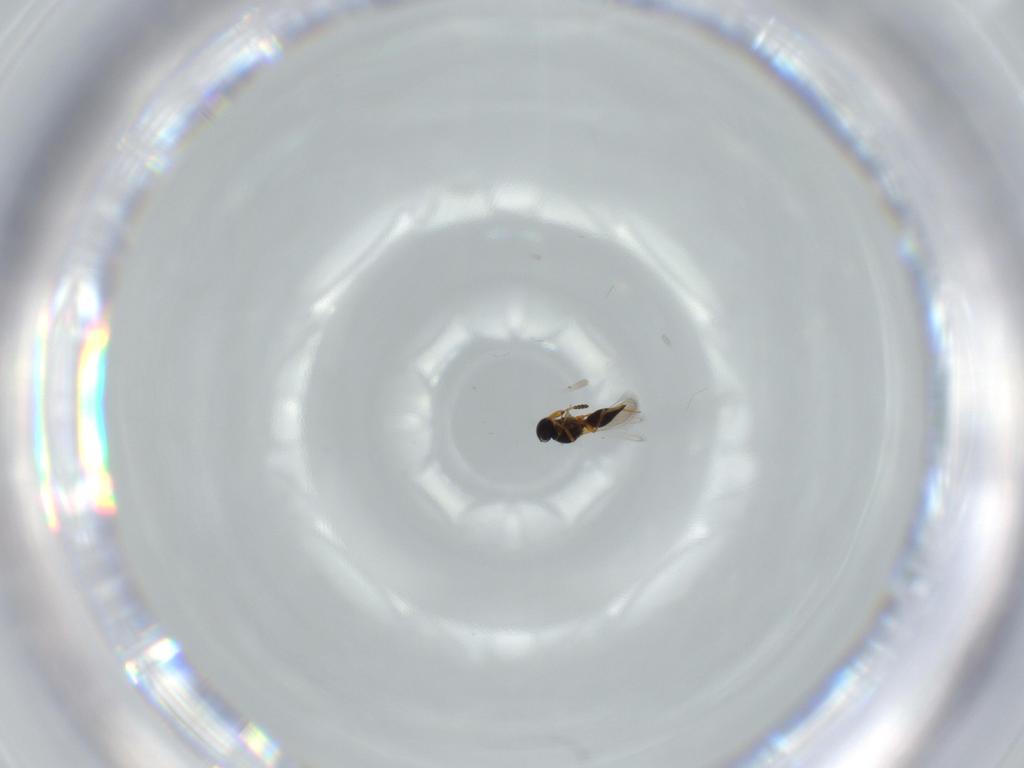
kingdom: Animalia
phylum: Arthropoda
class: Insecta
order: Hymenoptera
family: Platygastridae
